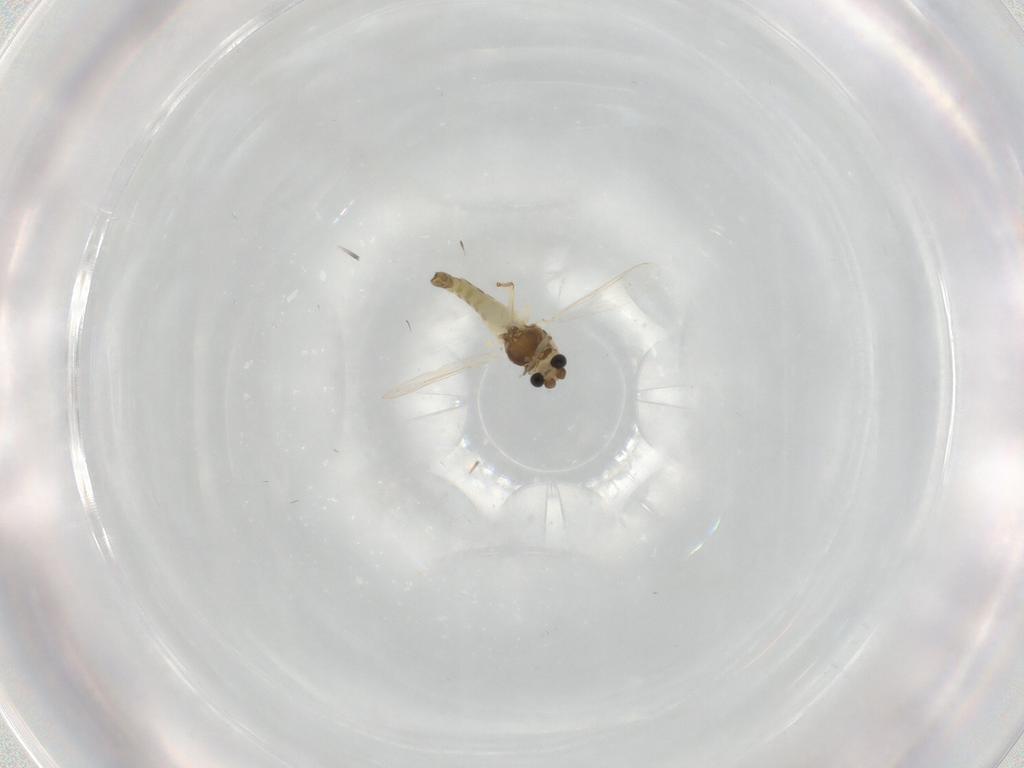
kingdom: Animalia
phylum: Arthropoda
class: Insecta
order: Diptera
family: Chironomidae
